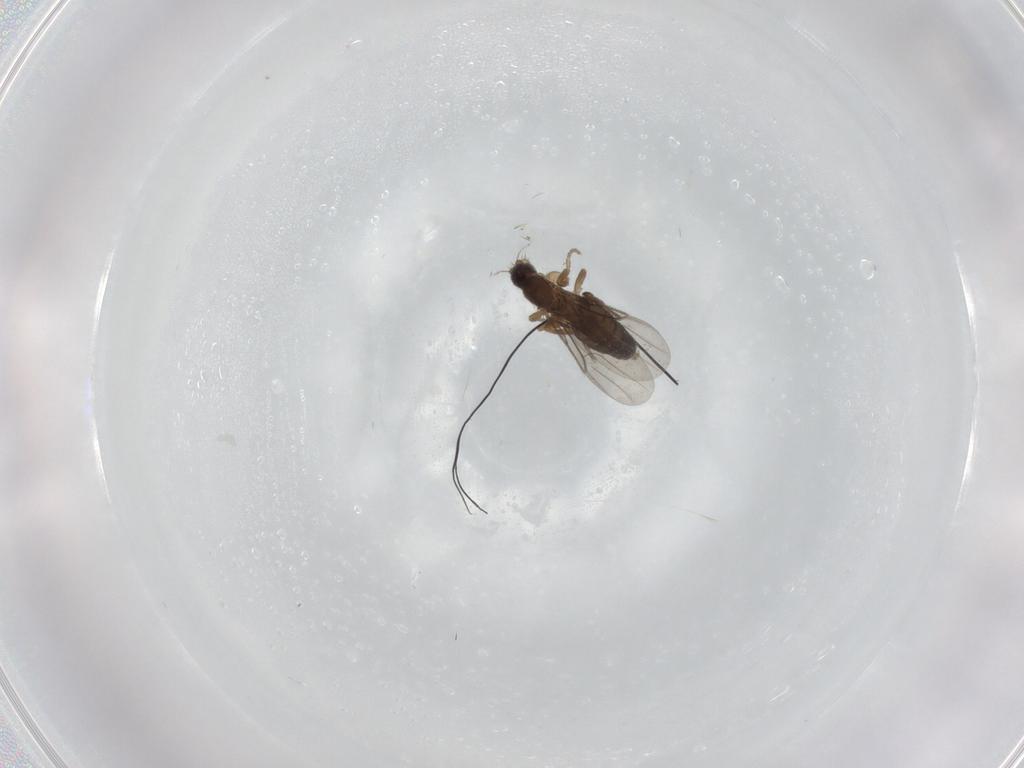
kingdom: Animalia
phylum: Arthropoda
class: Insecta
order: Diptera
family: Phoridae
